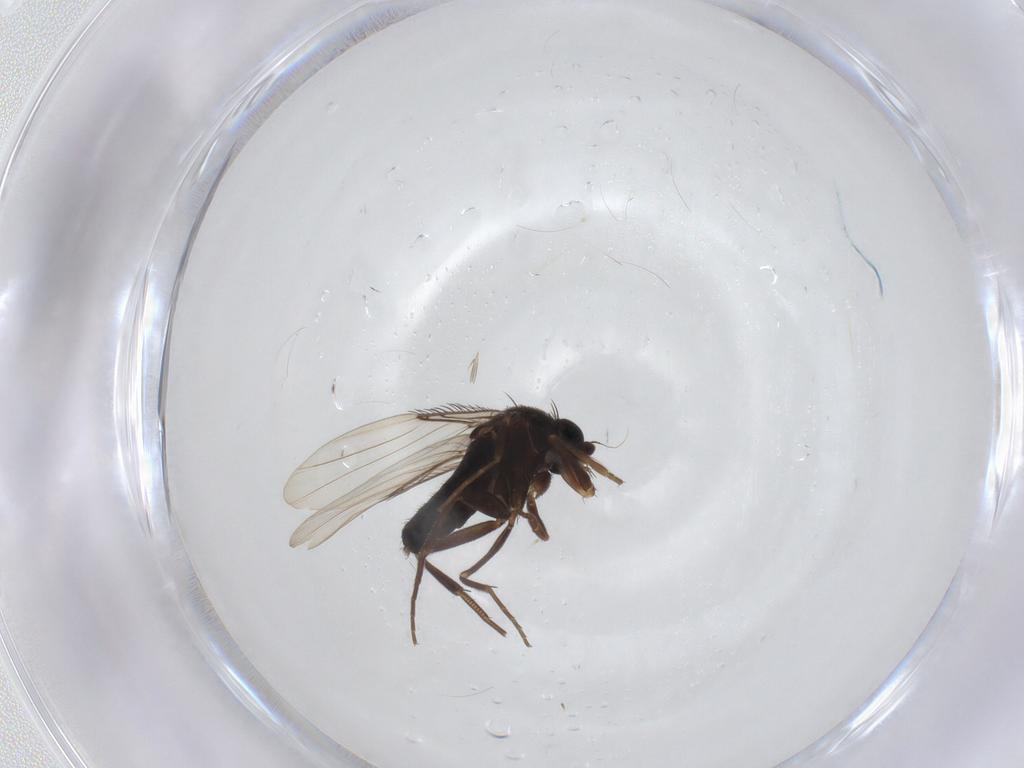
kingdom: Animalia
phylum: Arthropoda
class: Insecta
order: Diptera
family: Phoridae
